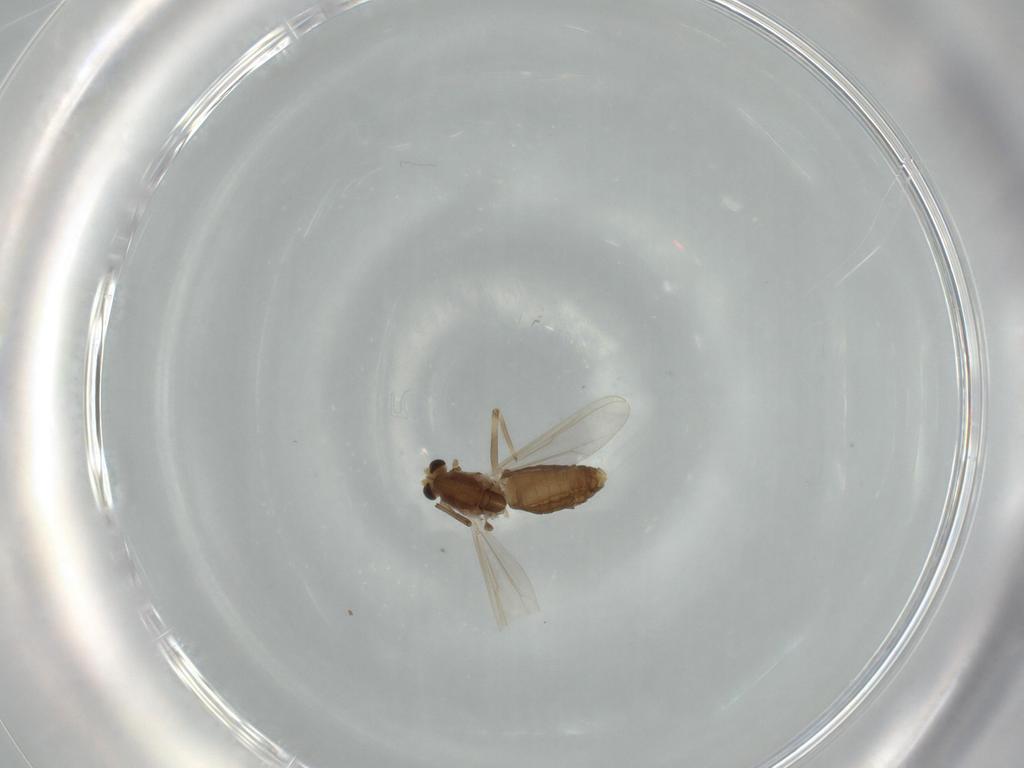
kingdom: Animalia
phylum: Arthropoda
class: Insecta
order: Diptera
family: Chironomidae
